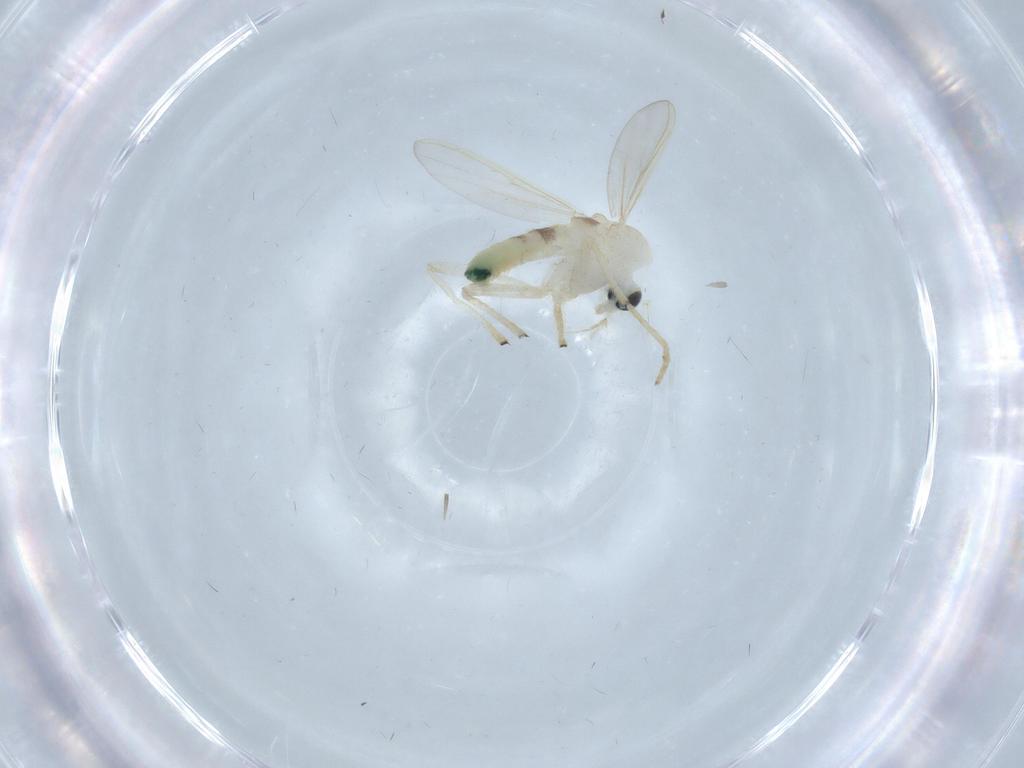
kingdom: Animalia
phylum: Arthropoda
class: Insecta
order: Diptera
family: Chironomidae
